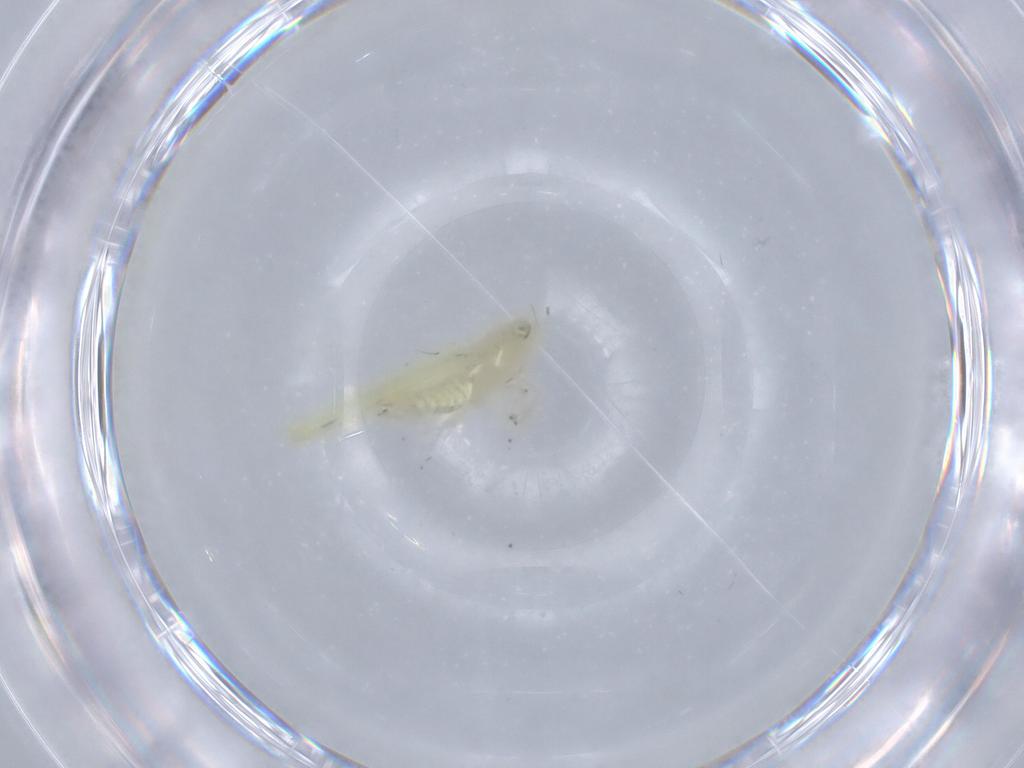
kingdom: Animalia
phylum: Arthropoda
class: Insecta
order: Hemiptera
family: Cicadellidae
